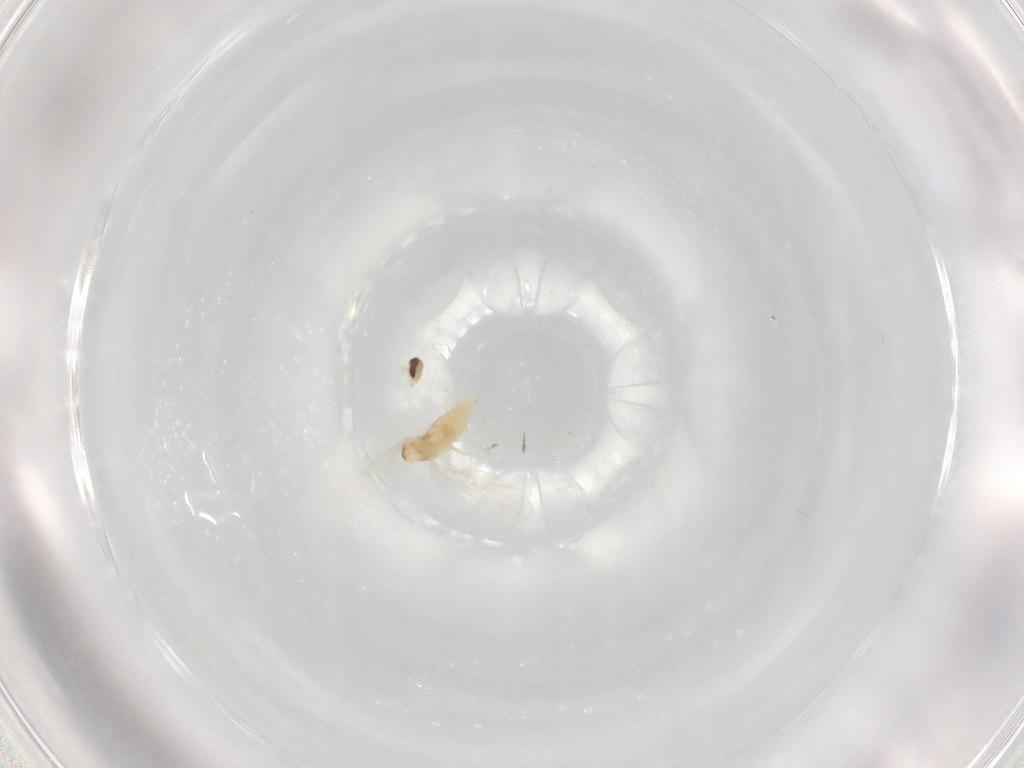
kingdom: Animalia
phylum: Arthropoda
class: Insecta
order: Diptera
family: Cecidomyiidae
